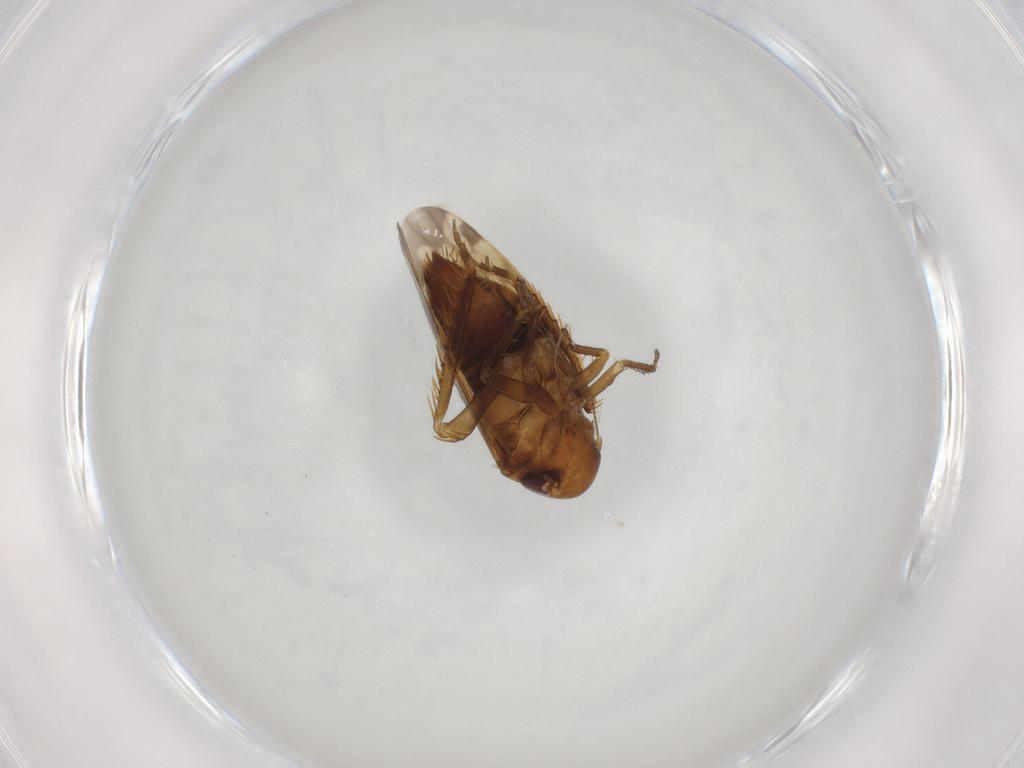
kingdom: Animalia
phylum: Arthropoda
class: Insecta
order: Hemiptera
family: Cicadellidae
